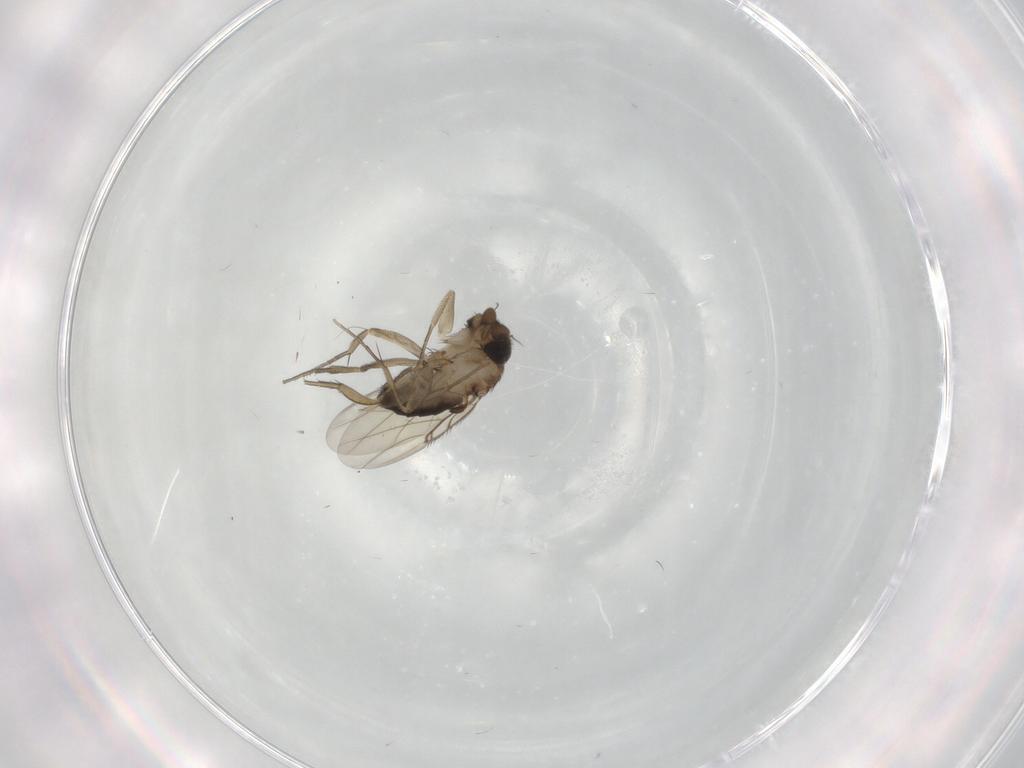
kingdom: Animalia
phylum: Arthropoda
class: Insecta
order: Diptera
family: Phoridae
